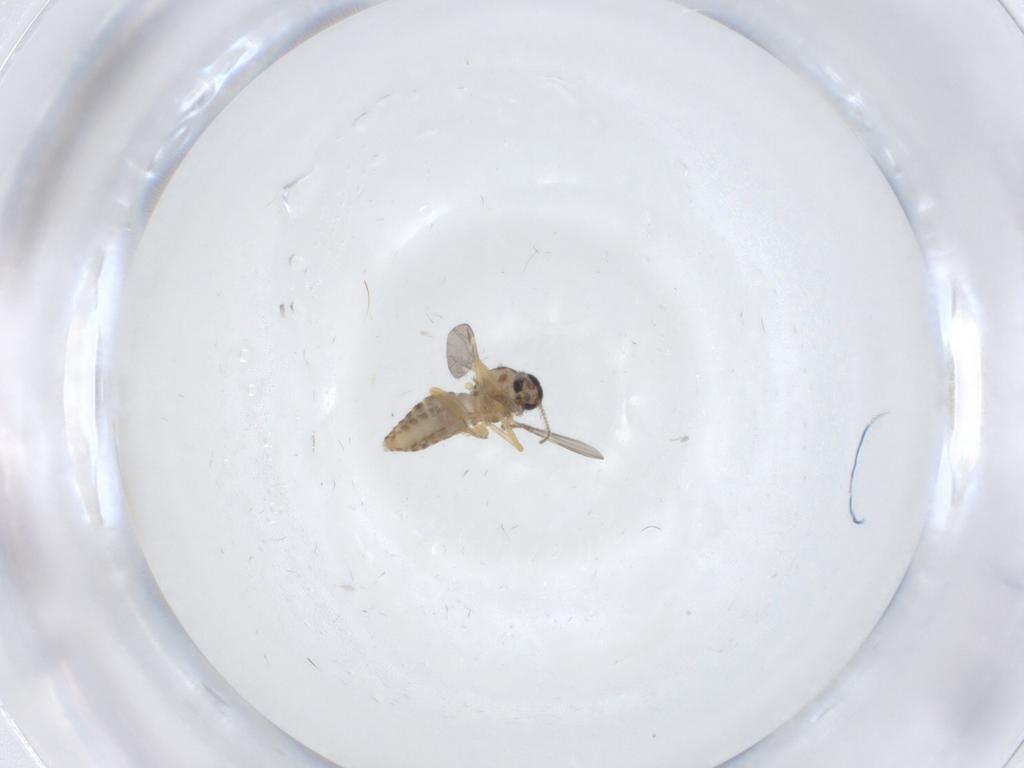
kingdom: Animalia
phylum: Arthropoda
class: Insecta
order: Diptera
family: Ceratopogonidae
